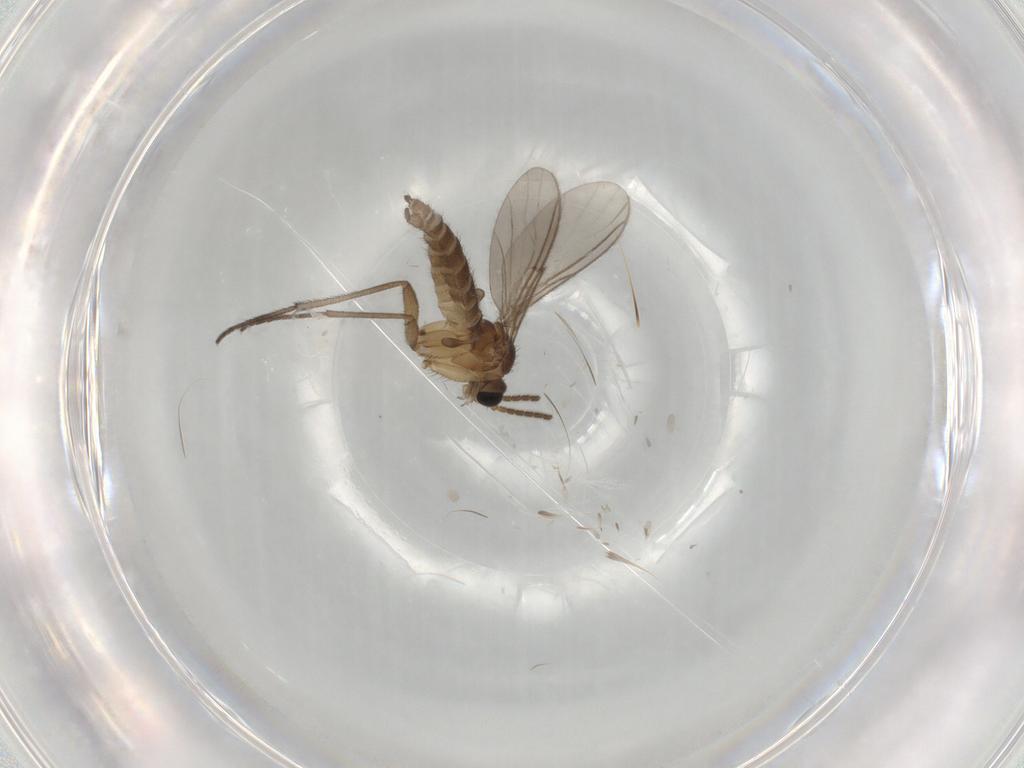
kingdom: Animalia
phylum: Arthropoda
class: Insecta
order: Diptera
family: Sciaridae
